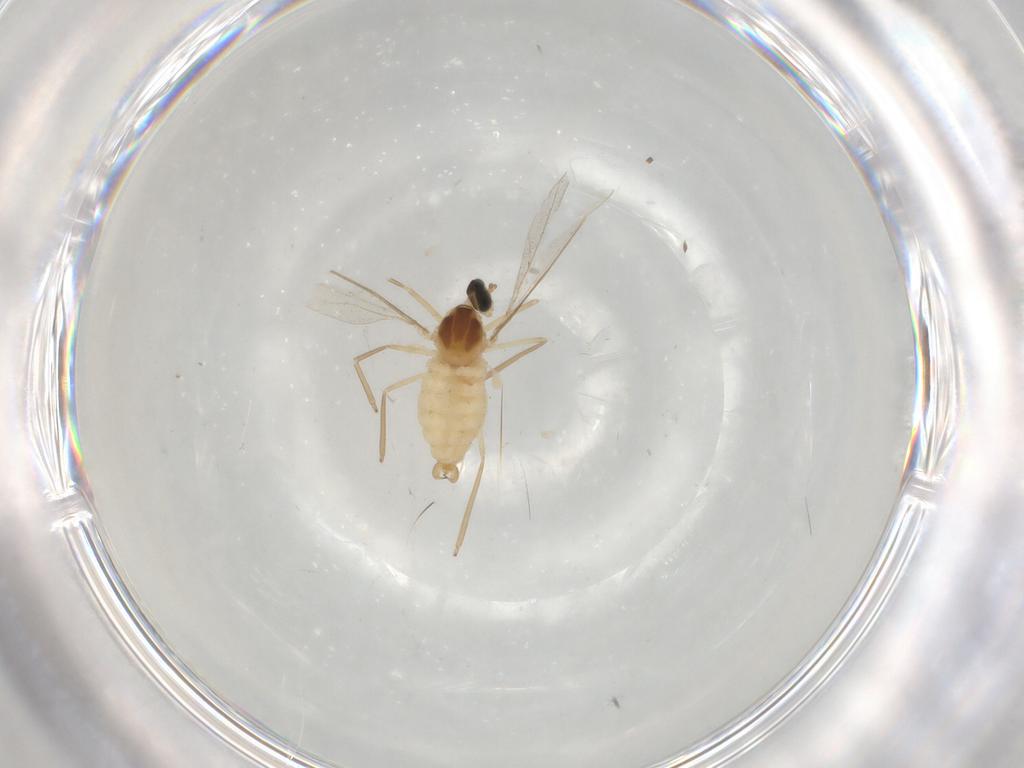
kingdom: Animalia
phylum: Arthropoda
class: Insecta
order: Diptera
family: Cecidomyiidae
